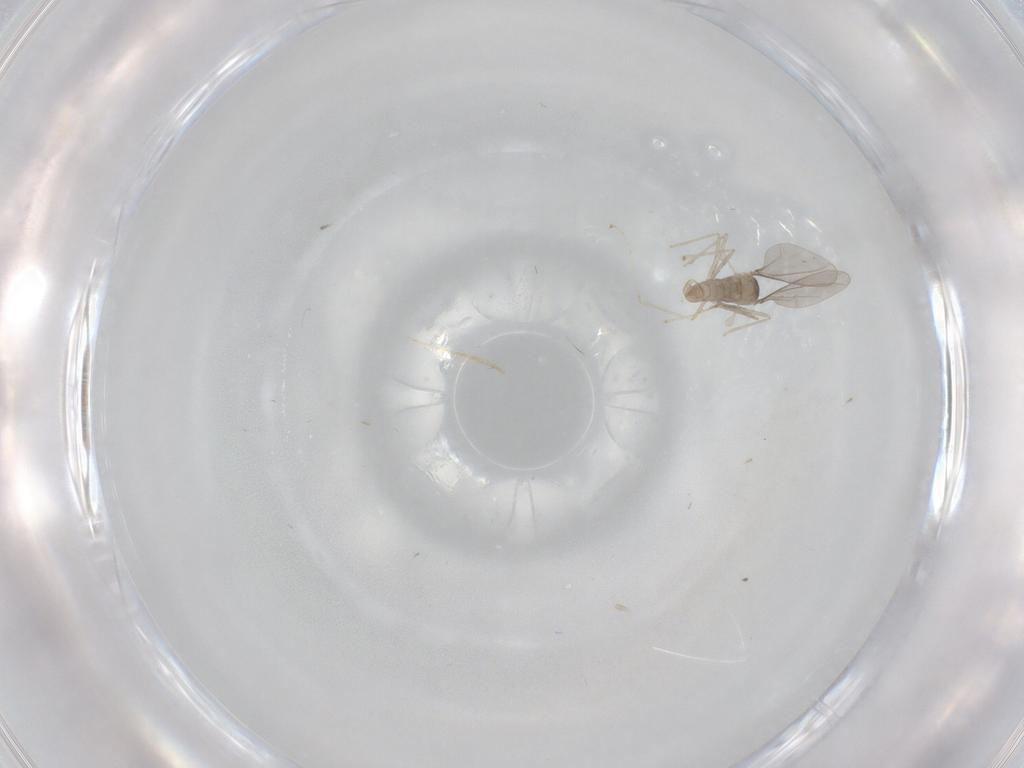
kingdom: Animalia
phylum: Arthropoda
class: Insecta
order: Diptera
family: Cecidomyiidae
